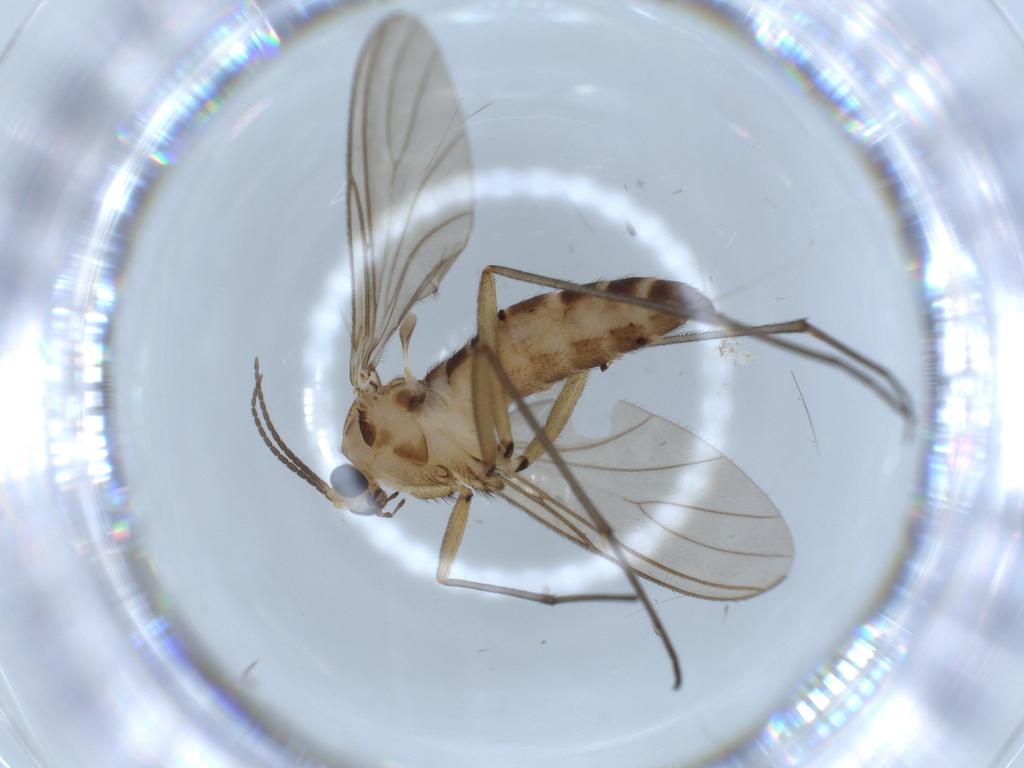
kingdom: Animalia
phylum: Arthropoda
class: Insecta
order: Diptera
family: Sciaridae
